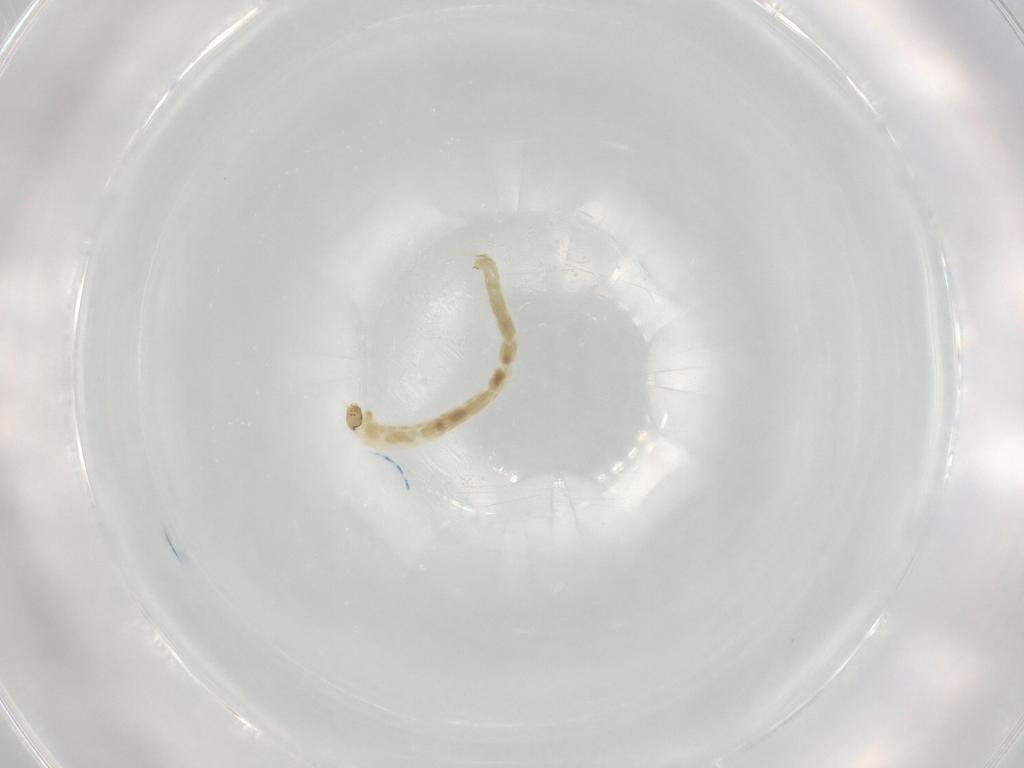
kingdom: Animalia
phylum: Arthropoda
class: Insecta
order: Diptera
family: Chironomidae
